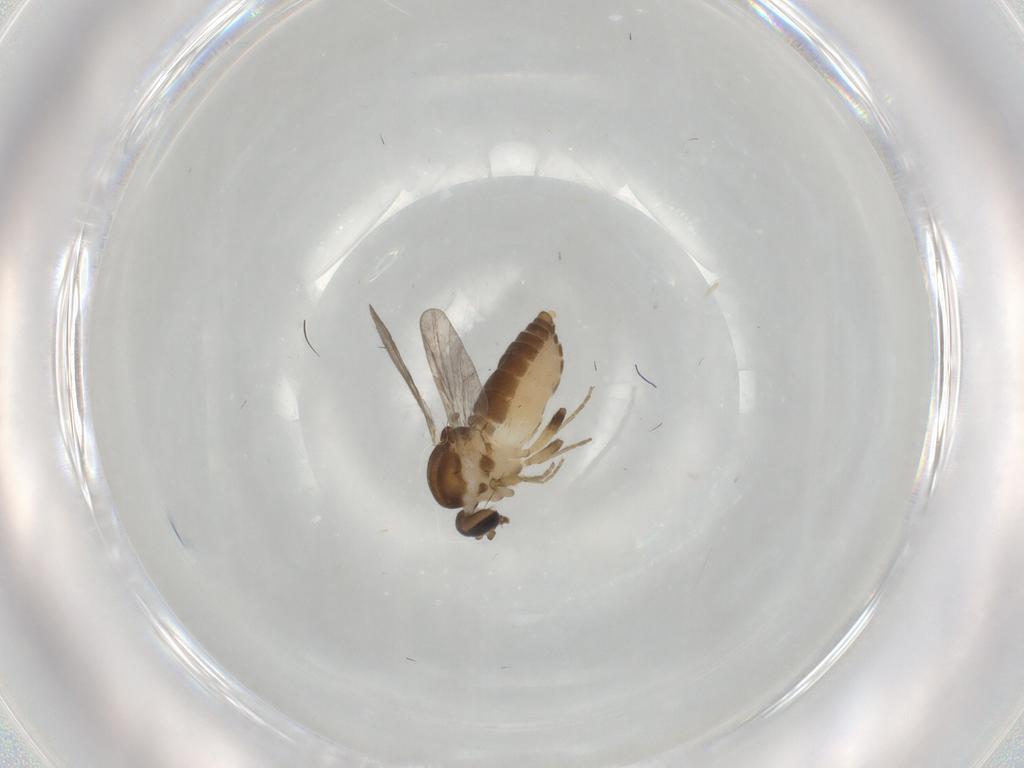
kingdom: Animalia
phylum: Arthropoda
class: Insecta
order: Diptera
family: Ceratopogonidae
